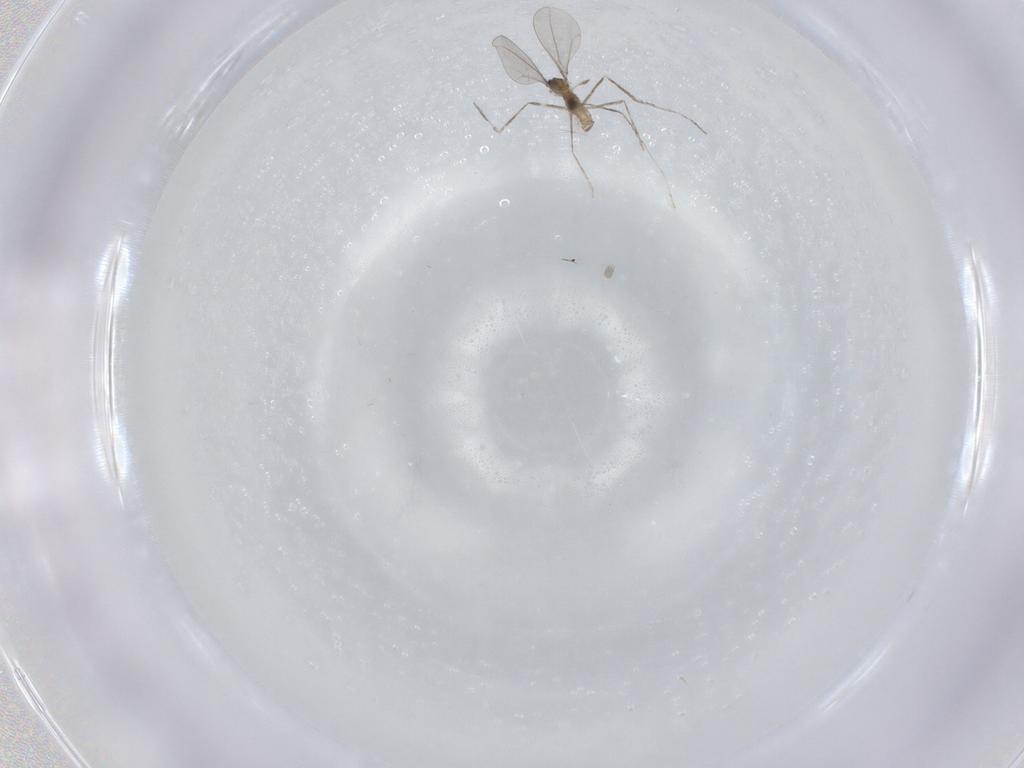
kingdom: Animalia
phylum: Arthropoda
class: Insecta
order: Diptera
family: Cecidomyiidae
